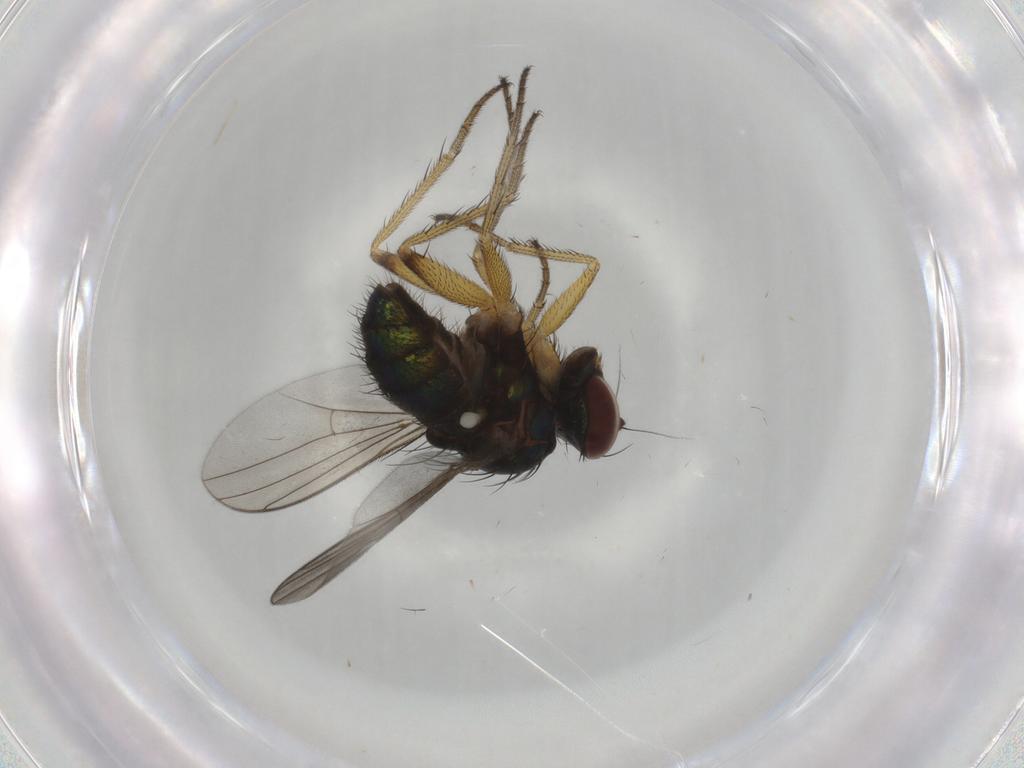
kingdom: Animalia
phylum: Arthropoda
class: Insecta
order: Diptera
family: Dolichopodidae
